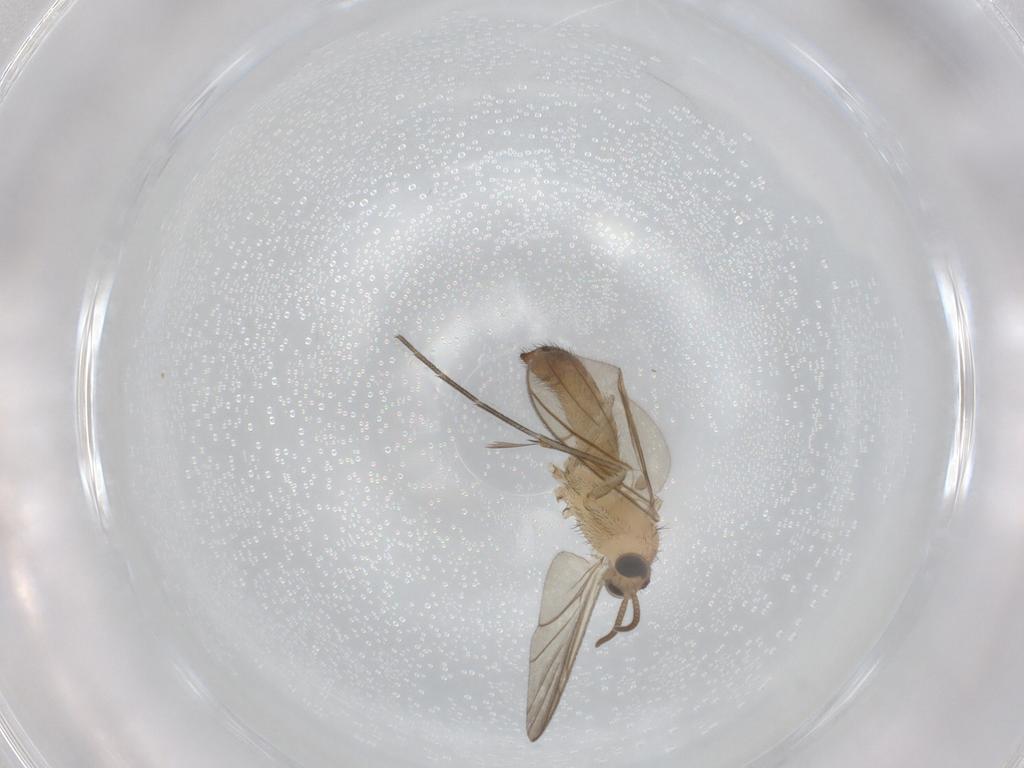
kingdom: Animalia
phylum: Arthropoda
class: Insecta
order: Diptera
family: Keroplatidae
